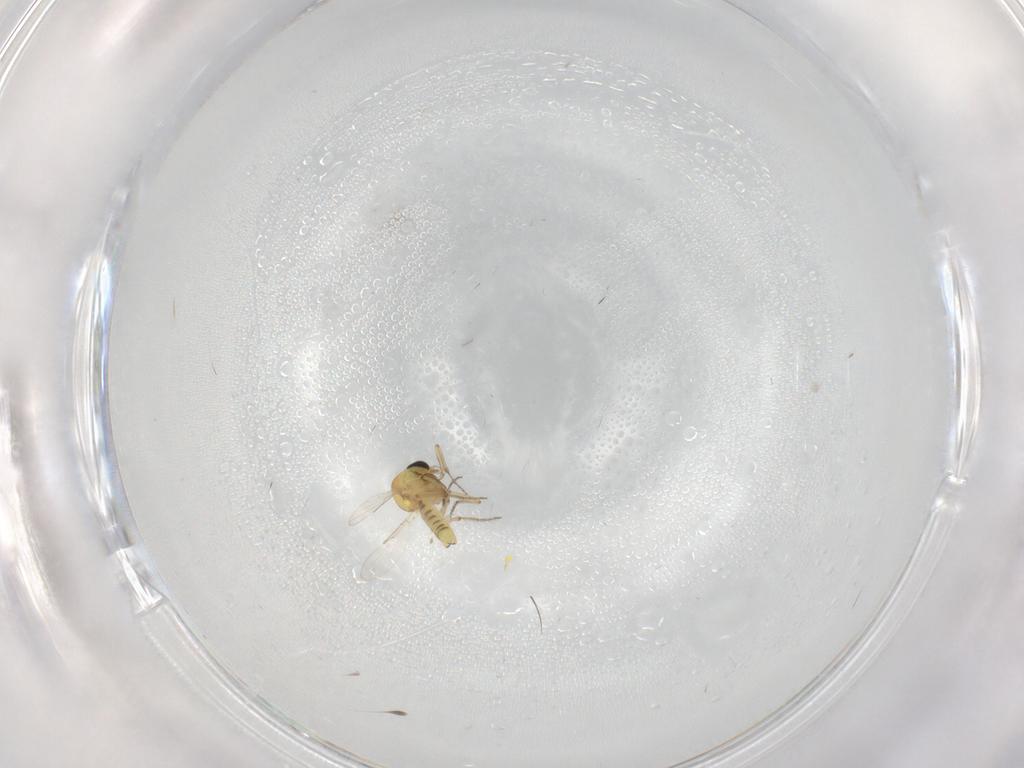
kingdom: Animalia
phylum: Arthropoda
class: Insecta
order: Diptera
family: Ceratopogonidae
